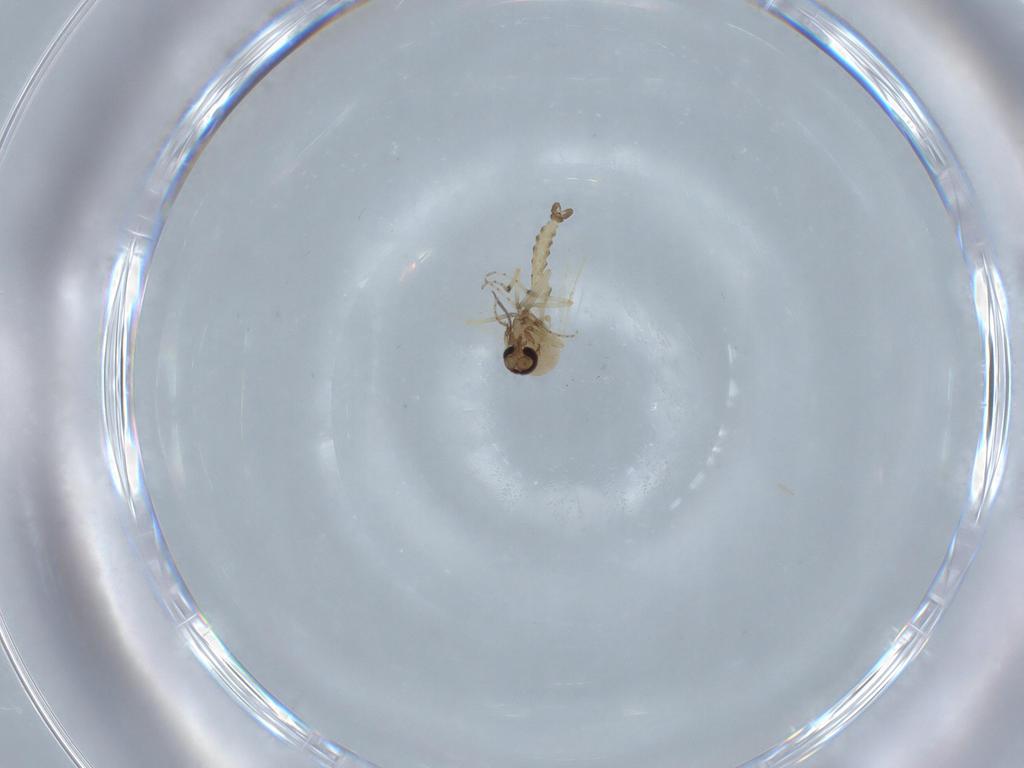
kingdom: Animalia
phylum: Arthropoda
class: Insecta
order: Diptera
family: Ceratopogonidae
